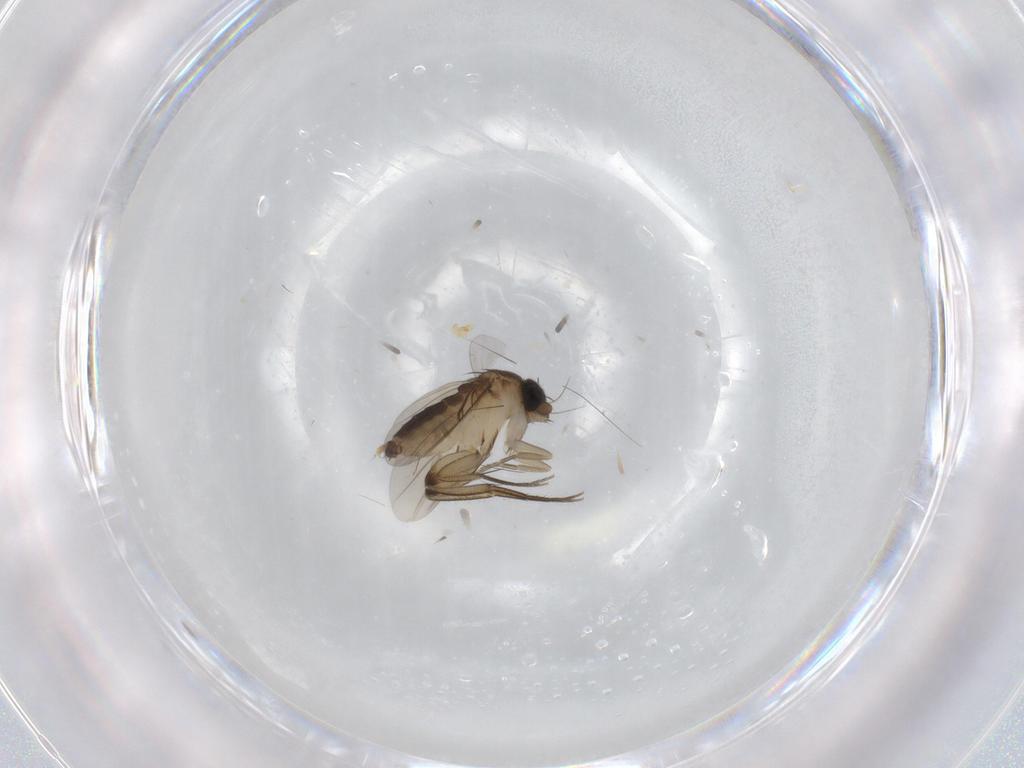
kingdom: Animalia
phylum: Arthropoda
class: Insecta
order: Diptera
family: Phoridae
